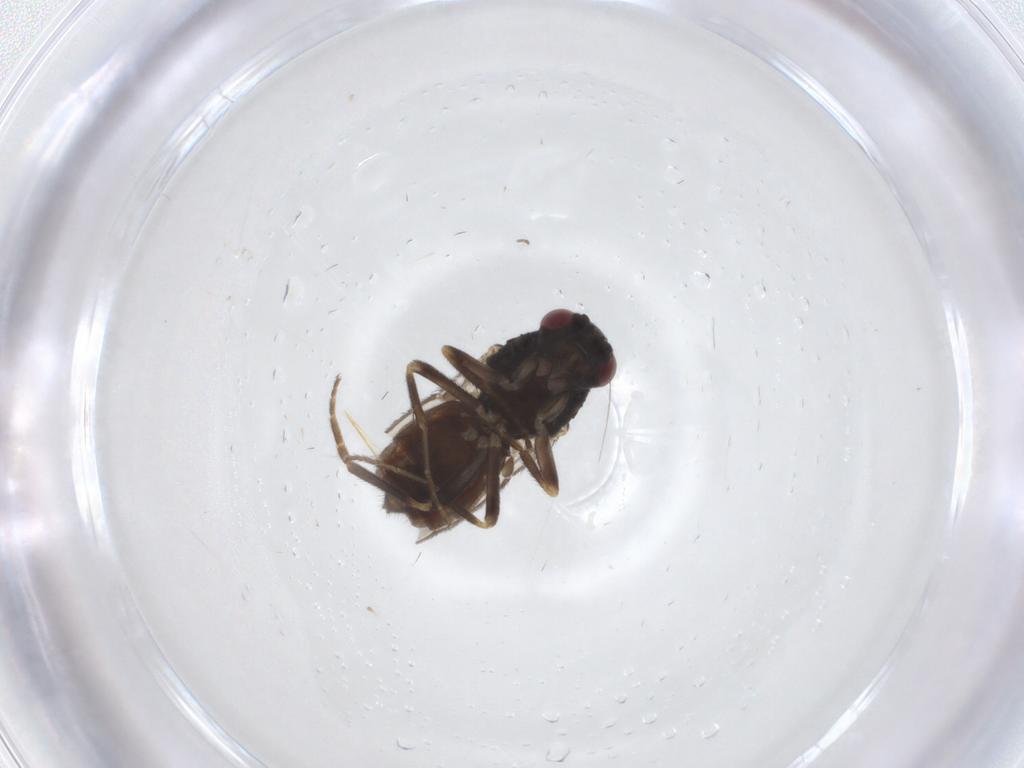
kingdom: Animalia
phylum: Arthropoda
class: Insecta
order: Diptera
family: Sphaeroceridae
